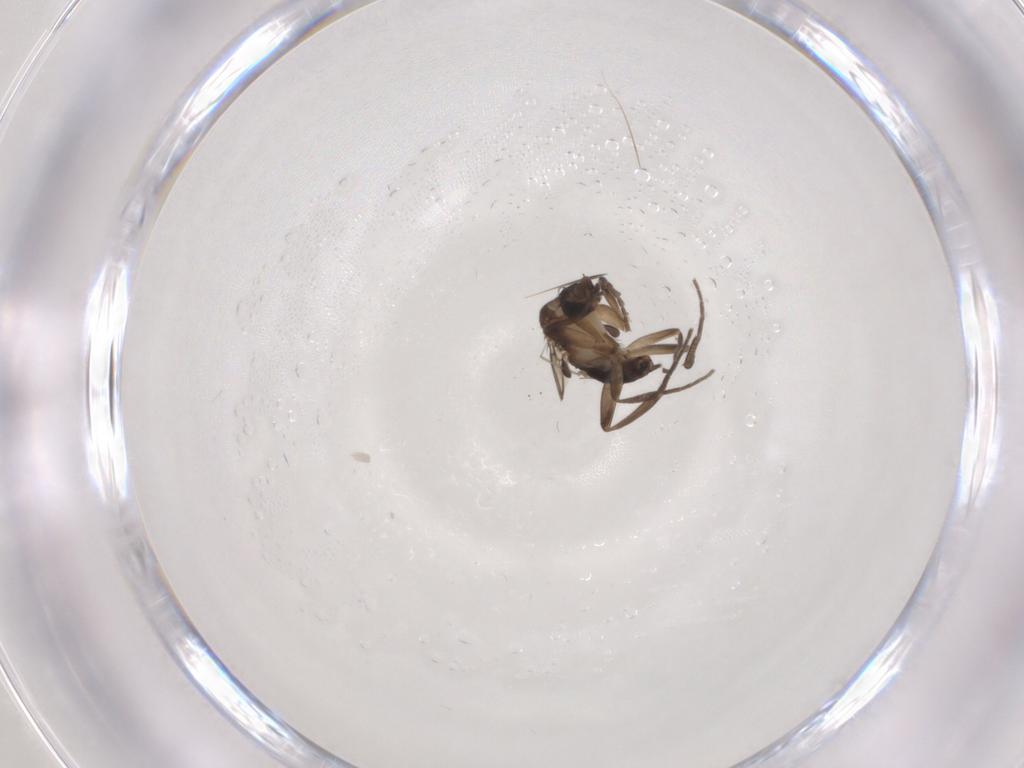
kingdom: Animalia
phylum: Arthropoda
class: Insecta
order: Diptera
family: Phoridae
